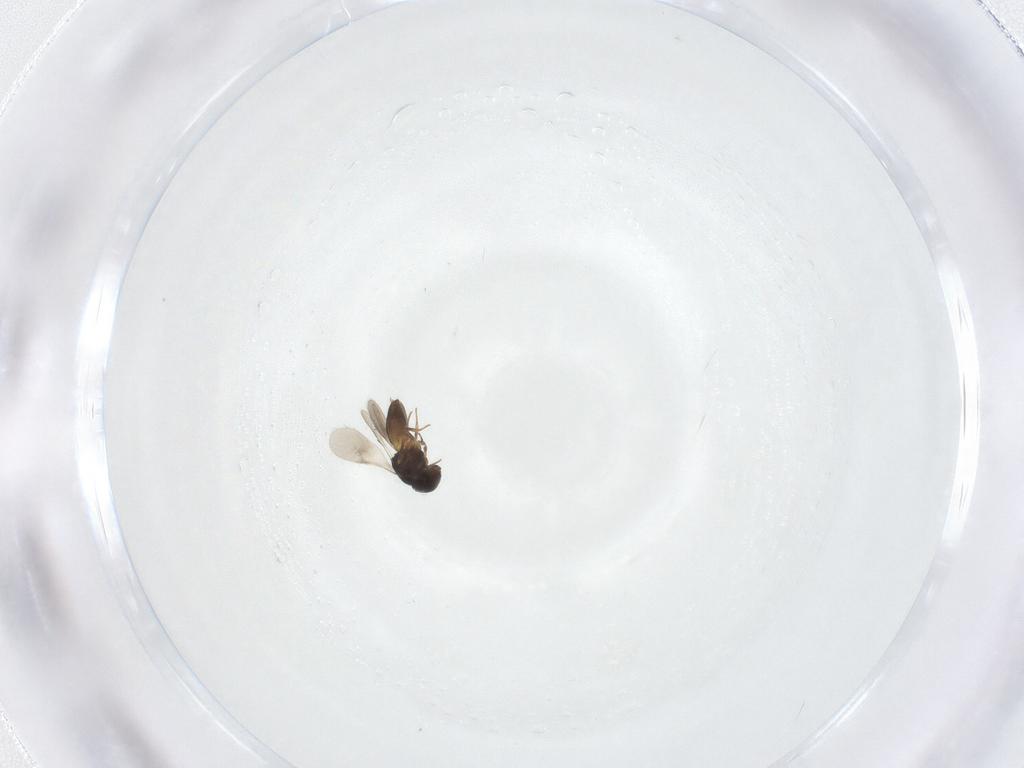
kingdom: Animalia
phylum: Arthropoda
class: Insecta
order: Hymenoptera
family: Scelionidae
